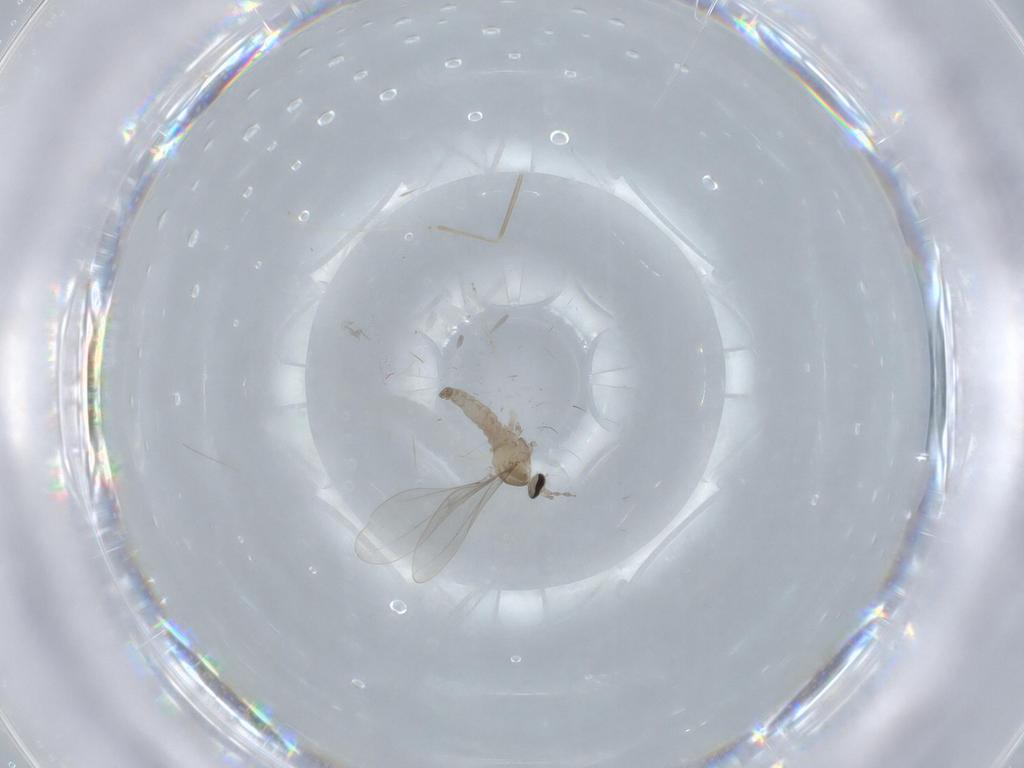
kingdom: Animalia
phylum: Arthropoda
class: Insecta
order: Diptera
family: Cecidomyiidae
